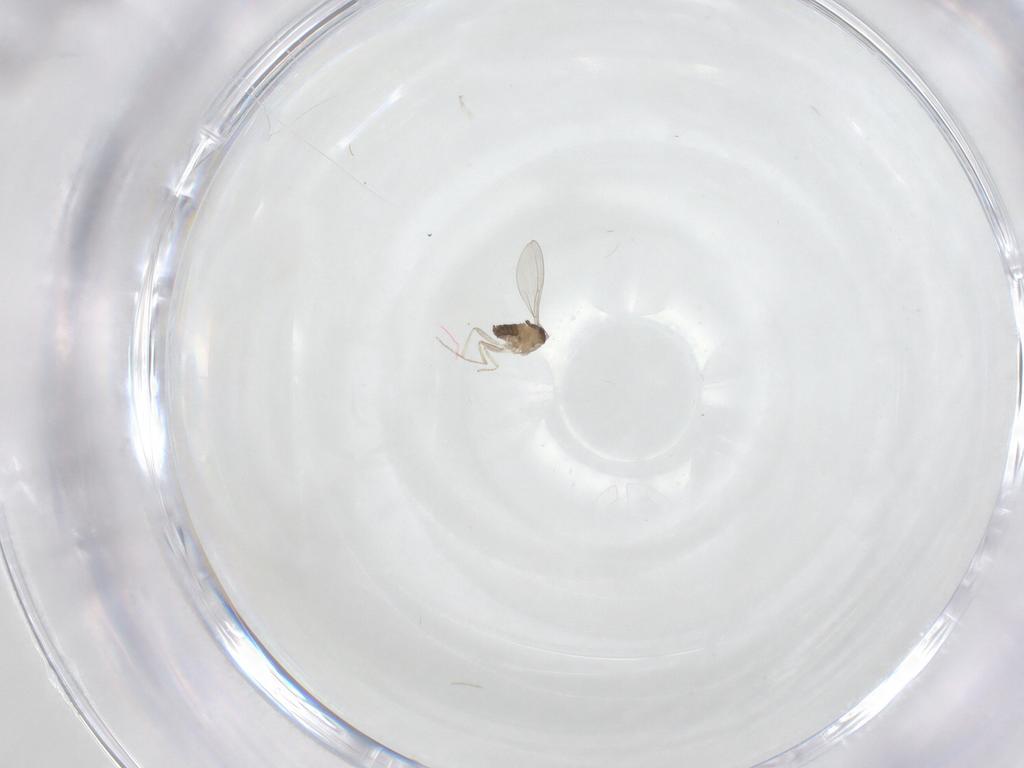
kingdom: Animalia
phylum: Arthropoda
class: Insecta
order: Diptera
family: Cecidomyiidae
